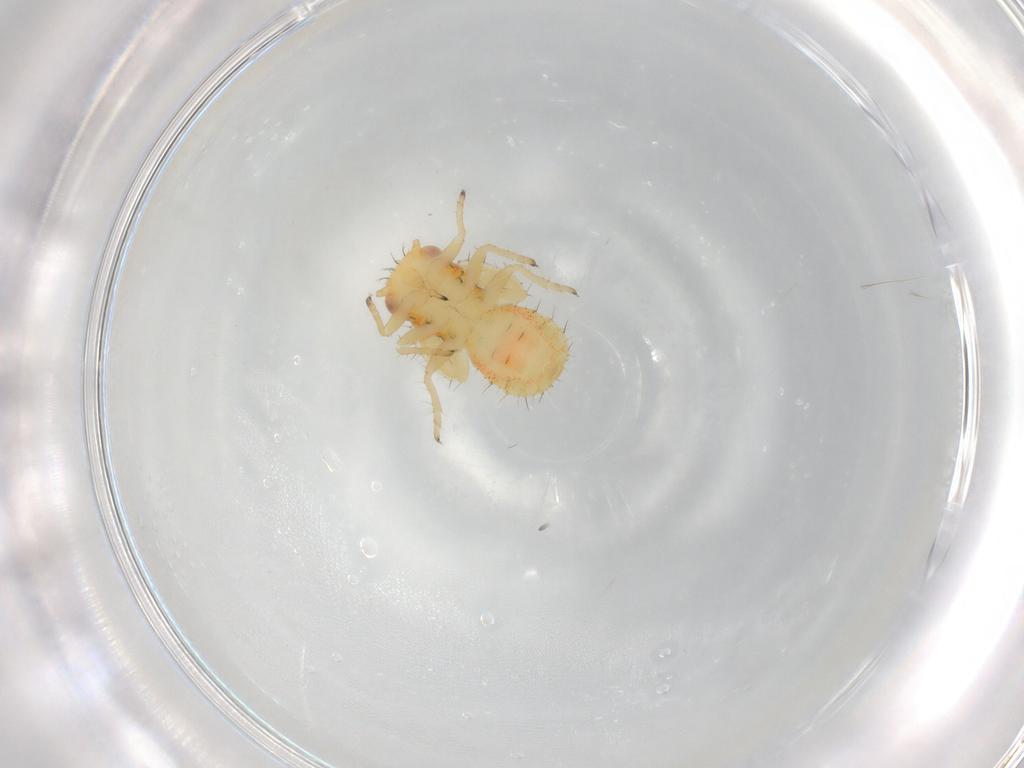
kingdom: Animalia
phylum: Arthropoda
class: Insecta
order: Hemiptera
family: Psyllidae
